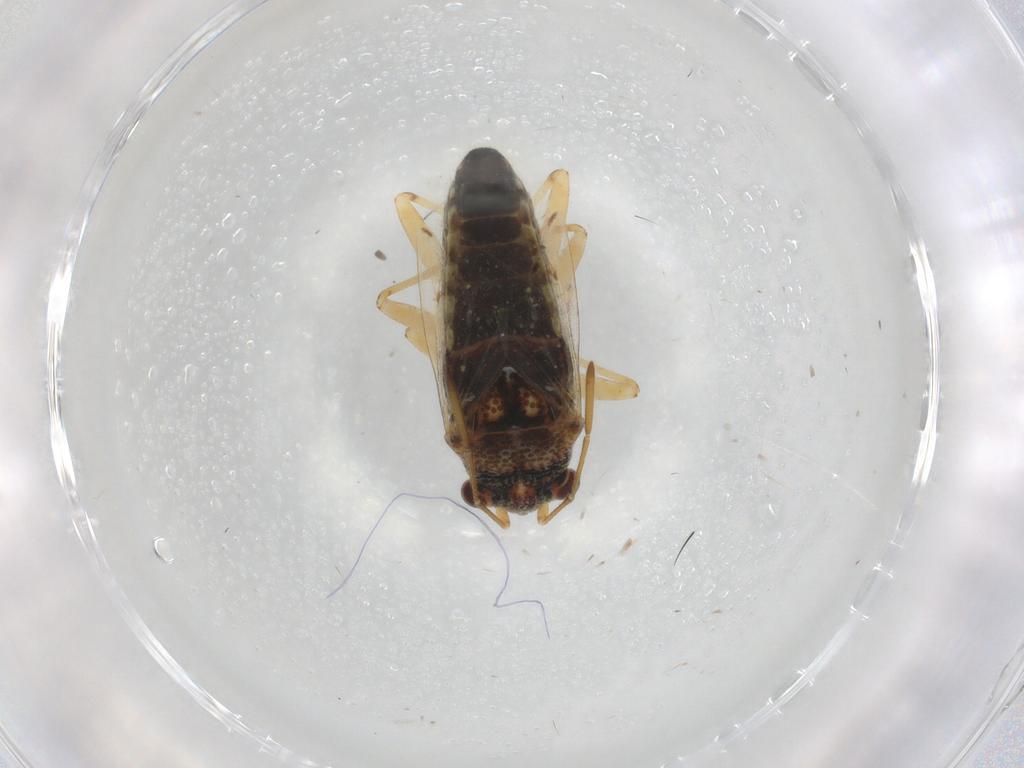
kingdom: Animalia
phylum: Arthropoda
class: Insecta
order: Hemiptera
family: Lygaeidae
